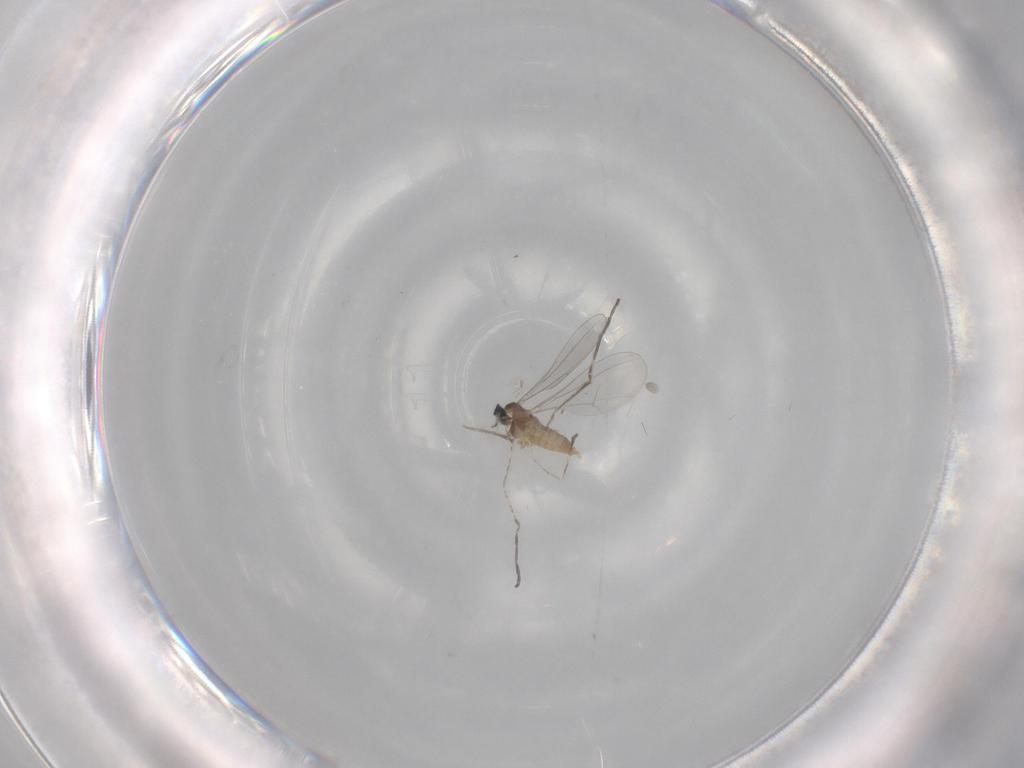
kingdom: Animalia
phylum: Arthropoda
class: Insecta
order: Diptera
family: Cecidomyiidae
